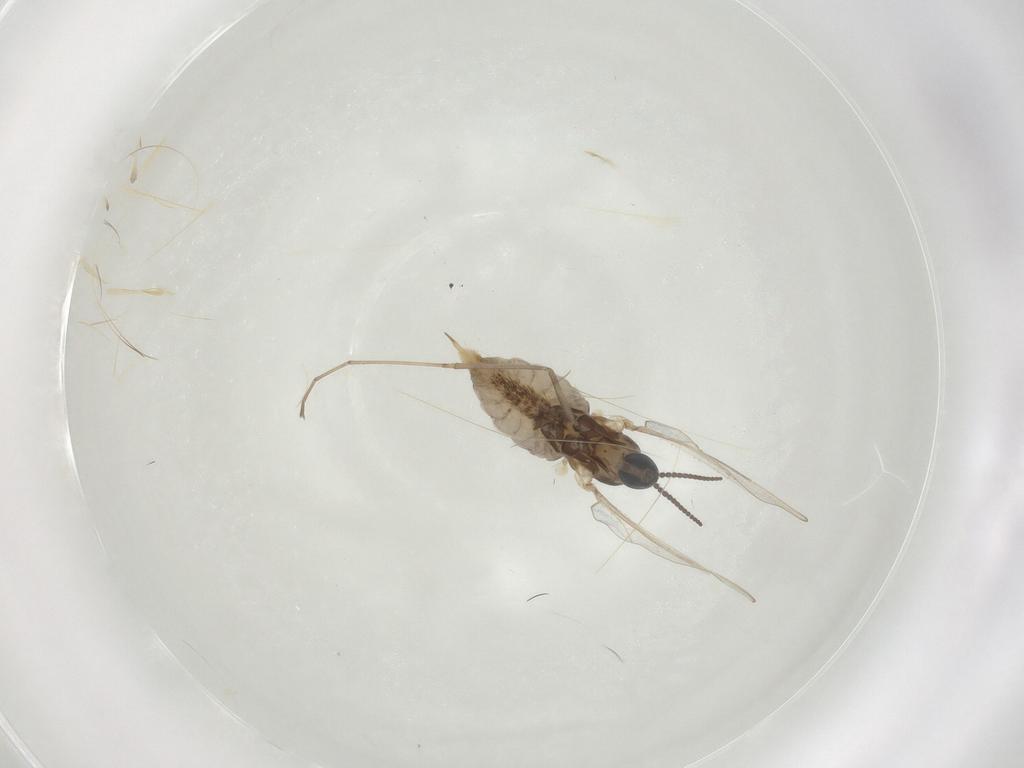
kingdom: Animalia
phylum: Arthropoda
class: Insecta
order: Diptera
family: Cecidomyiidae
